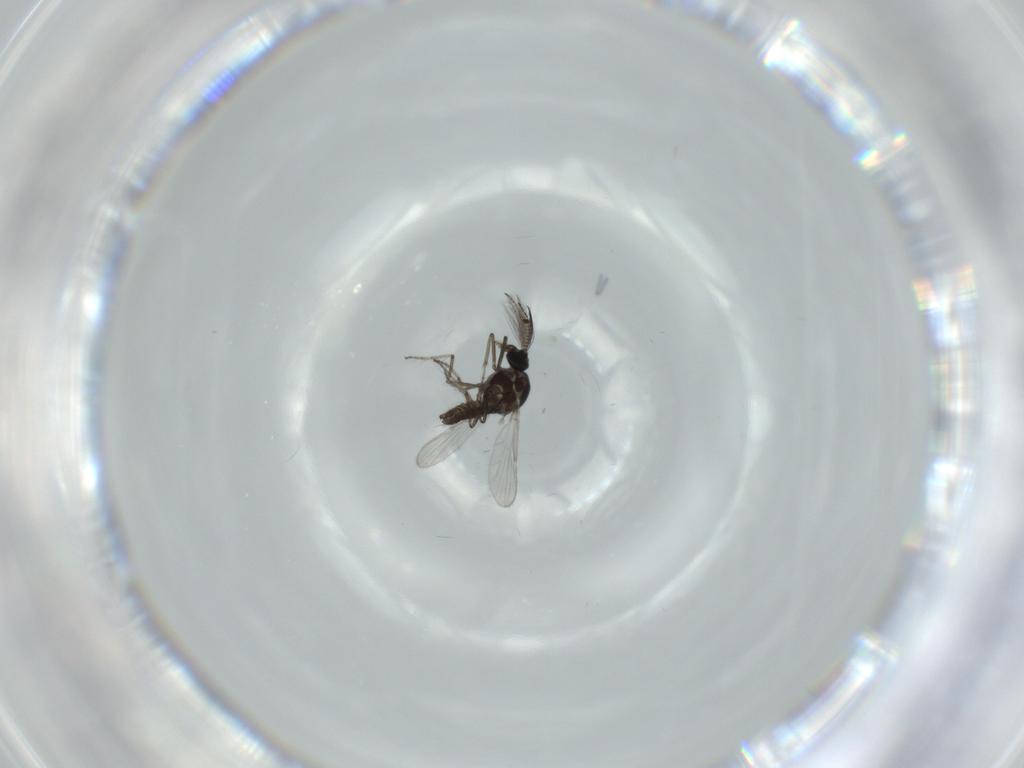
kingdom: Animalia
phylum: Arthropoda
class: Insecta
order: Diptera
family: Ceratopogonidae
